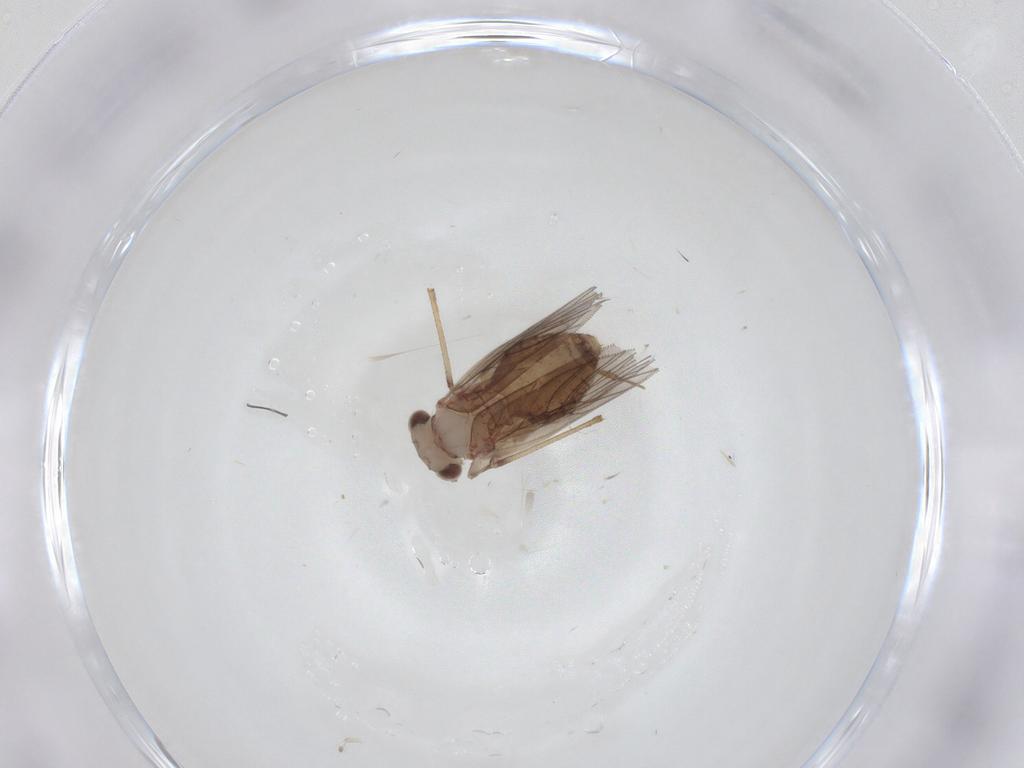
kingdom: Animalia
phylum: Arthropoda
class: Insecta
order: Psocodea
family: Lepidopsocidae
